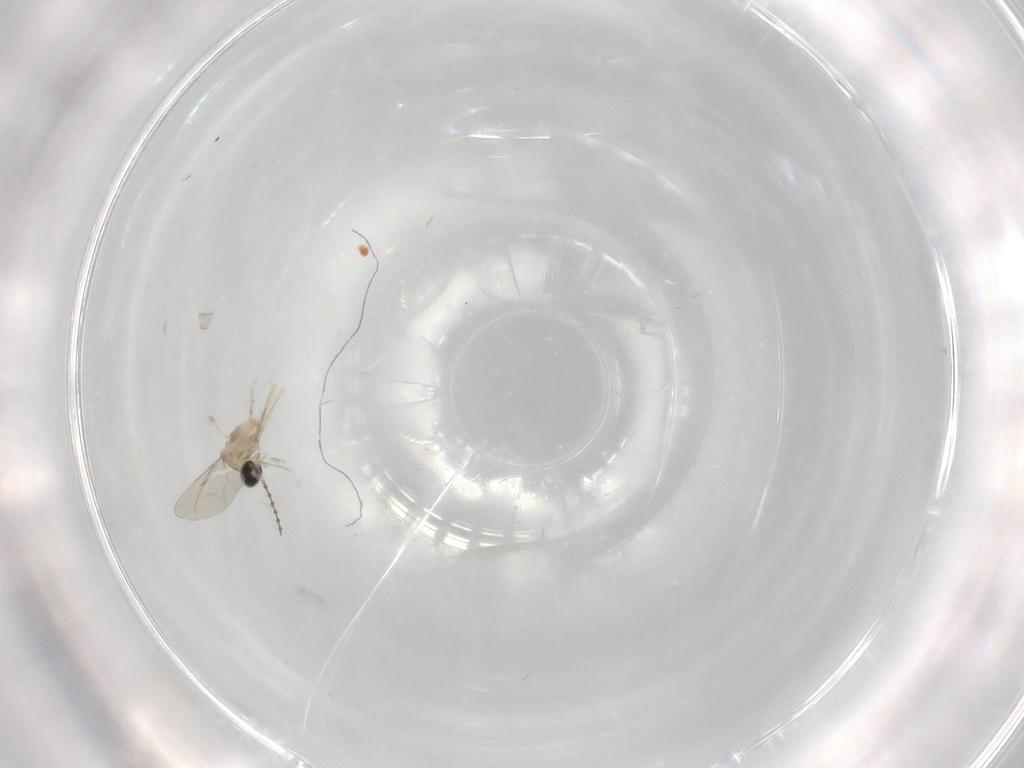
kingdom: Animalia
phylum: Arthropoda
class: Insecta
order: Diptera
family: Cecidomyiidae
